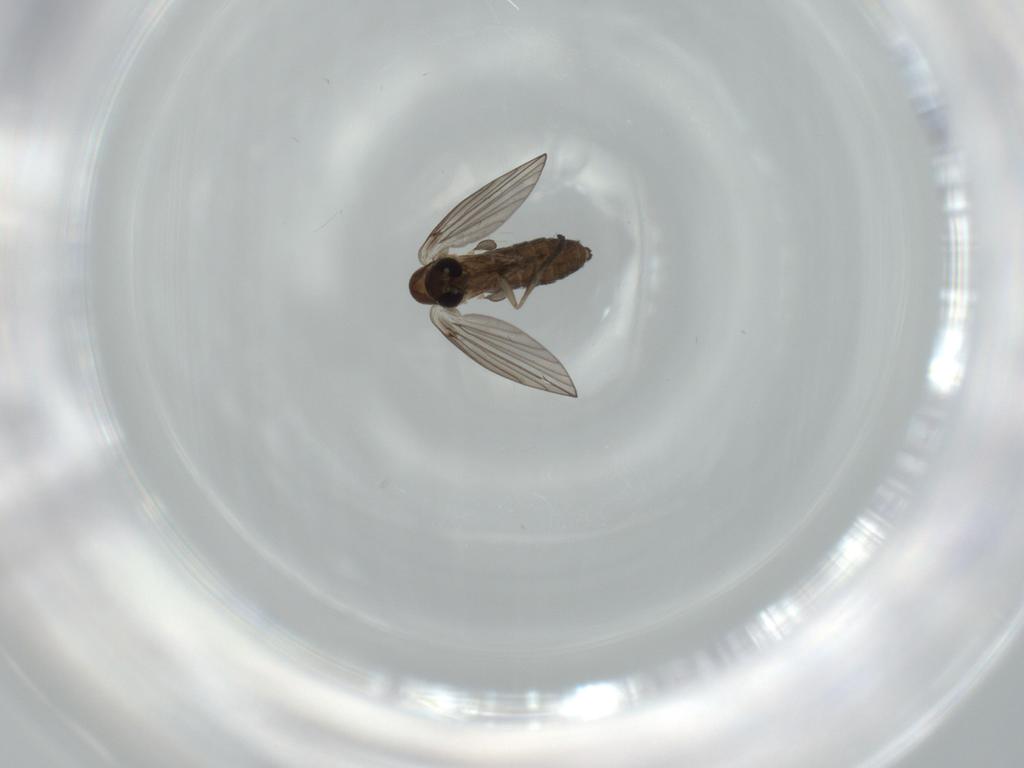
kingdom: Animalia
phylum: Arthropoda
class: Insecta
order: Diptera
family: Psychodidae
